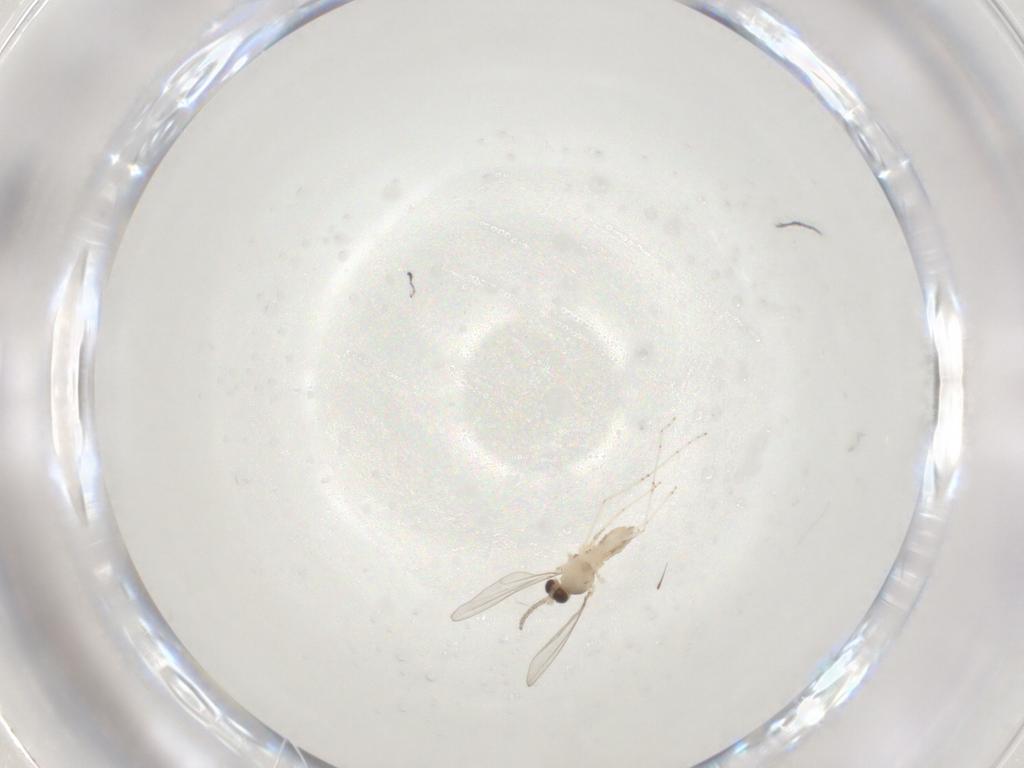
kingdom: Animalia
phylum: Arthropoda
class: Insecta
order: Diptera
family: Cecidomyiidae
